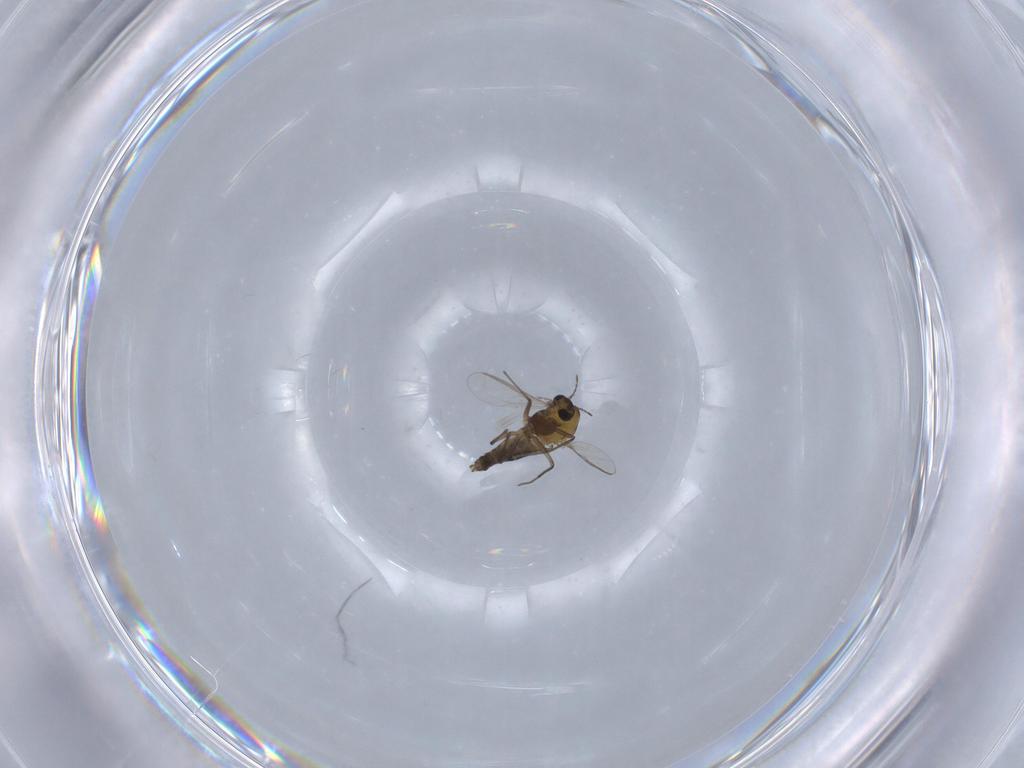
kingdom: Animalia
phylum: Arthropoda
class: Insecta
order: Diptera
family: Chironomidae
